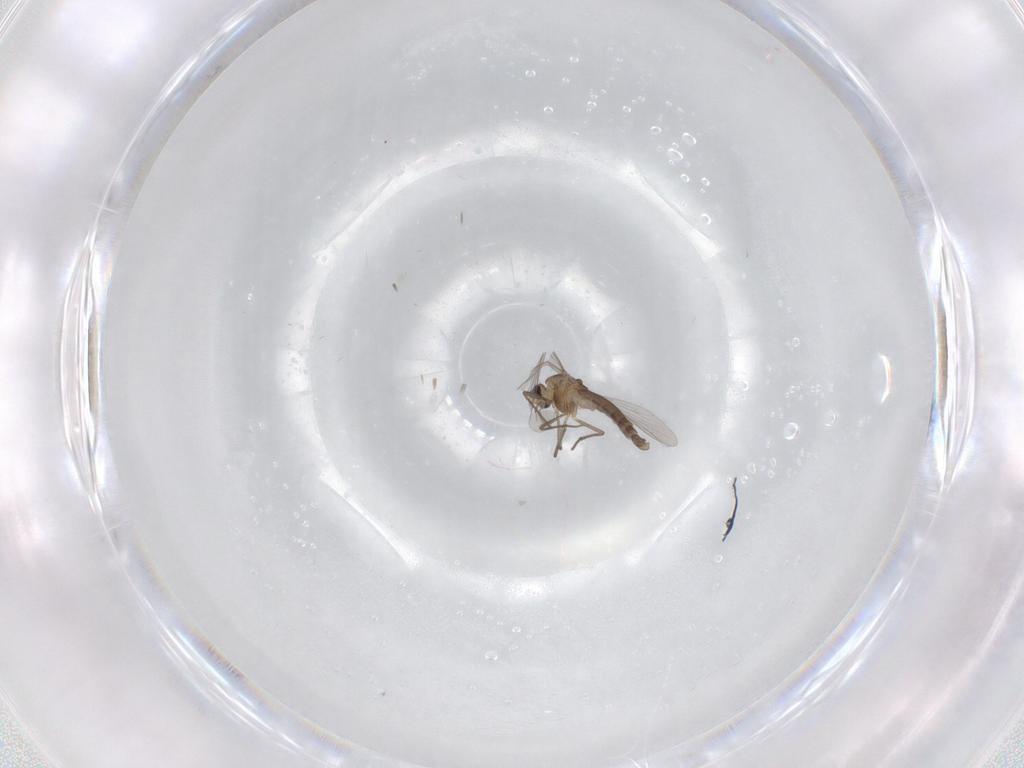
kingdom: Animalia
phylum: Arthropoda
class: Insecta
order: Diptera
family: Chironomidae
